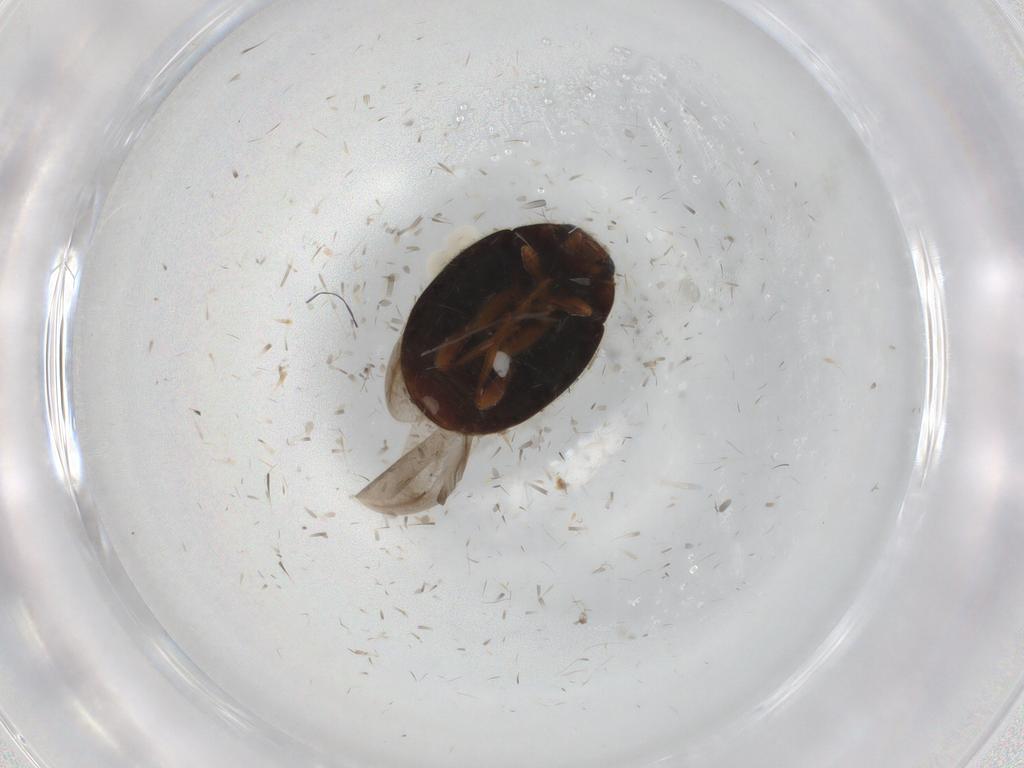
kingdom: Animalia
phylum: Arthropoda
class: Insecta
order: Coleoptera
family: Coccinellidae
